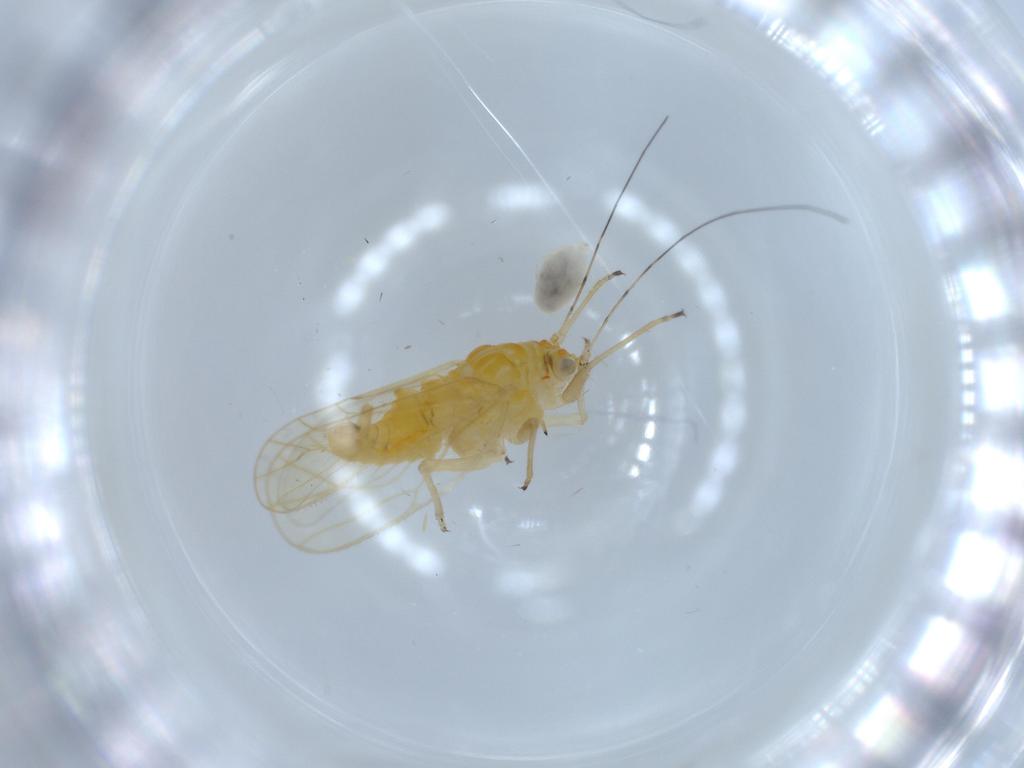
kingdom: Animalia
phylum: Arthropoda
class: Insecta
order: Hemiptera
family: Psyllidae
